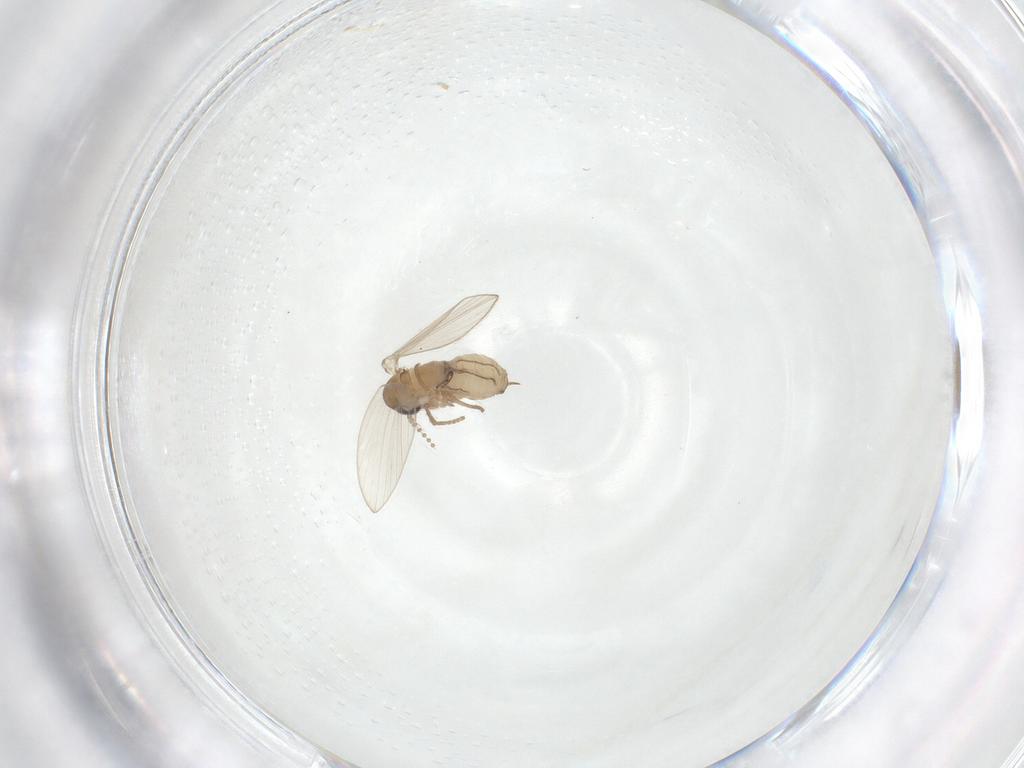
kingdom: Animalia
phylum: Arthropoda
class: Insecta
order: Diptera
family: Psychodidae
